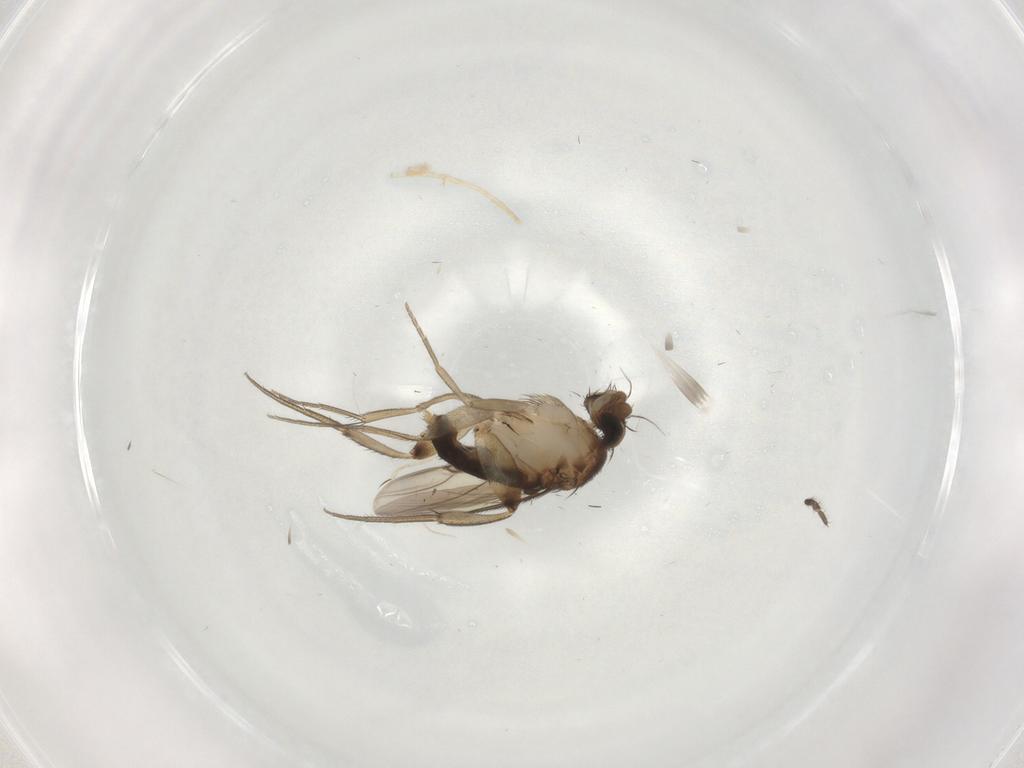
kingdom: Animalia
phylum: Arthropoda
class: Insecta
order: Diptera
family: Phoridae
